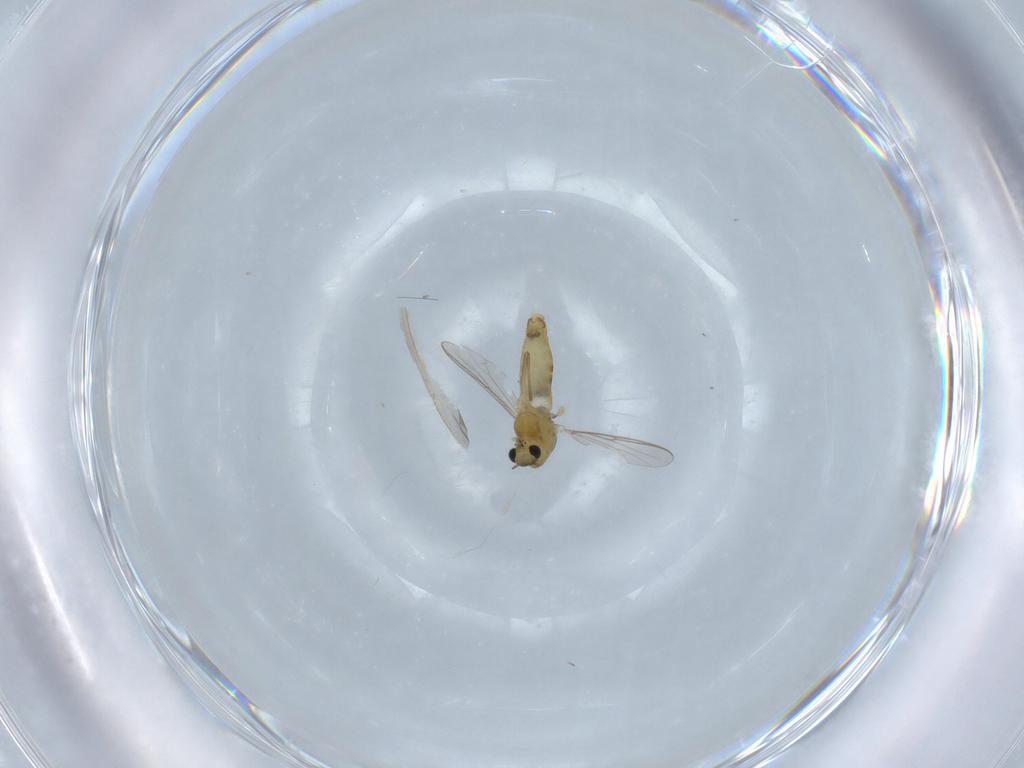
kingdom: Animalia
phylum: Arthropoda
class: Insecta
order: Diptera
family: Chironomidae
